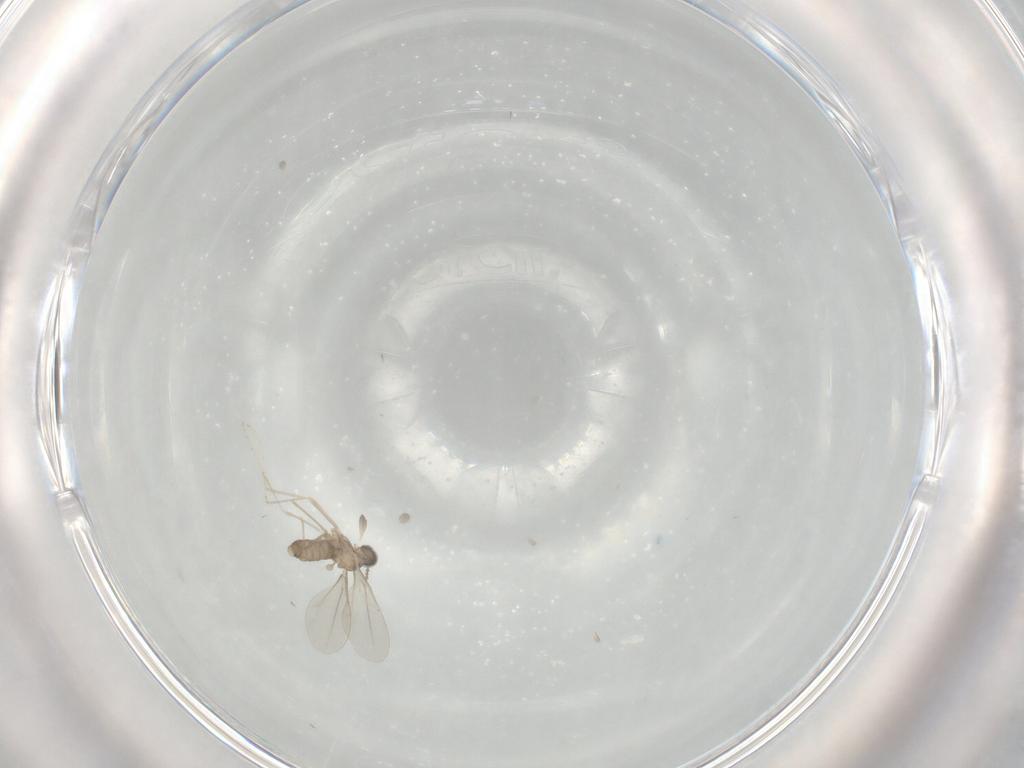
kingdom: Animalia
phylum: Arthropoda
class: Insecta
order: Diptera
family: Cecidomyiidae
